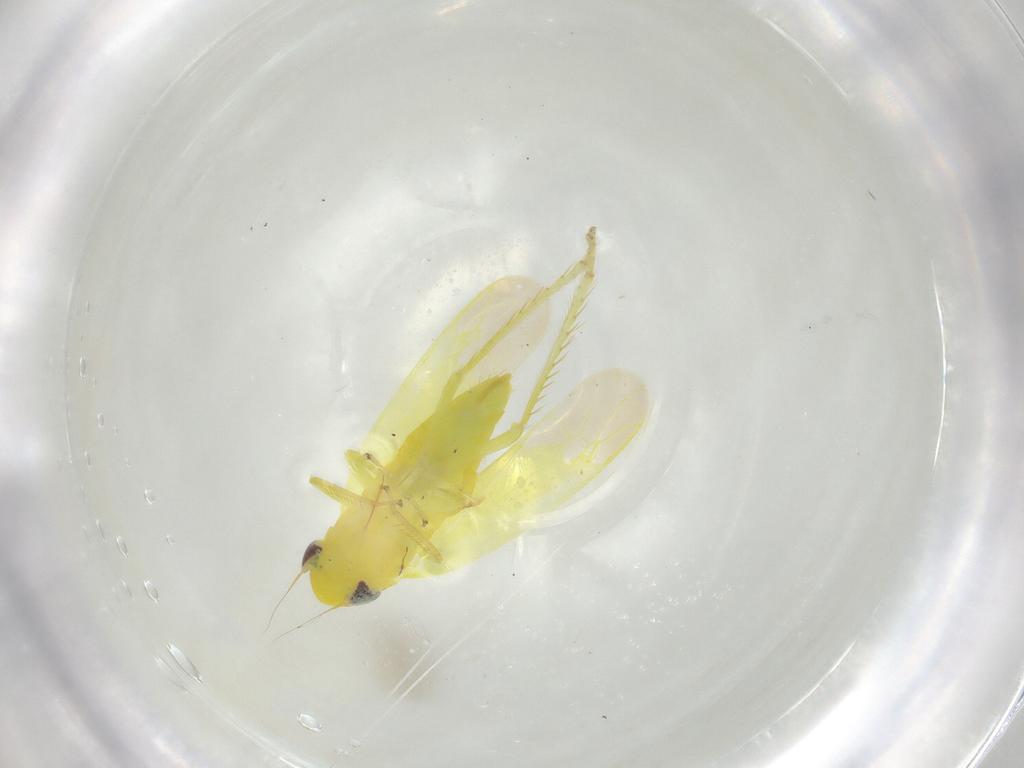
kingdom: Animalia
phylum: Arthropoda
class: Insecta
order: Hemiptera
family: Cicadellidae
